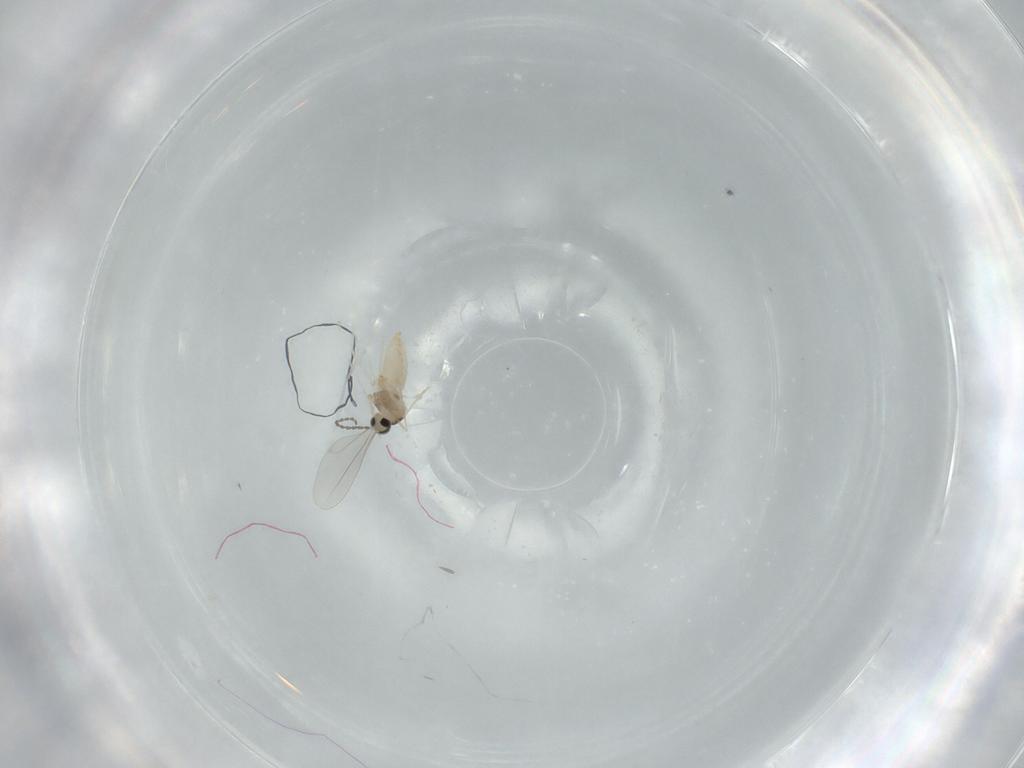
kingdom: Animalia
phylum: Arthropoda
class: Insecta
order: Diptera
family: Cecidomyiidae
